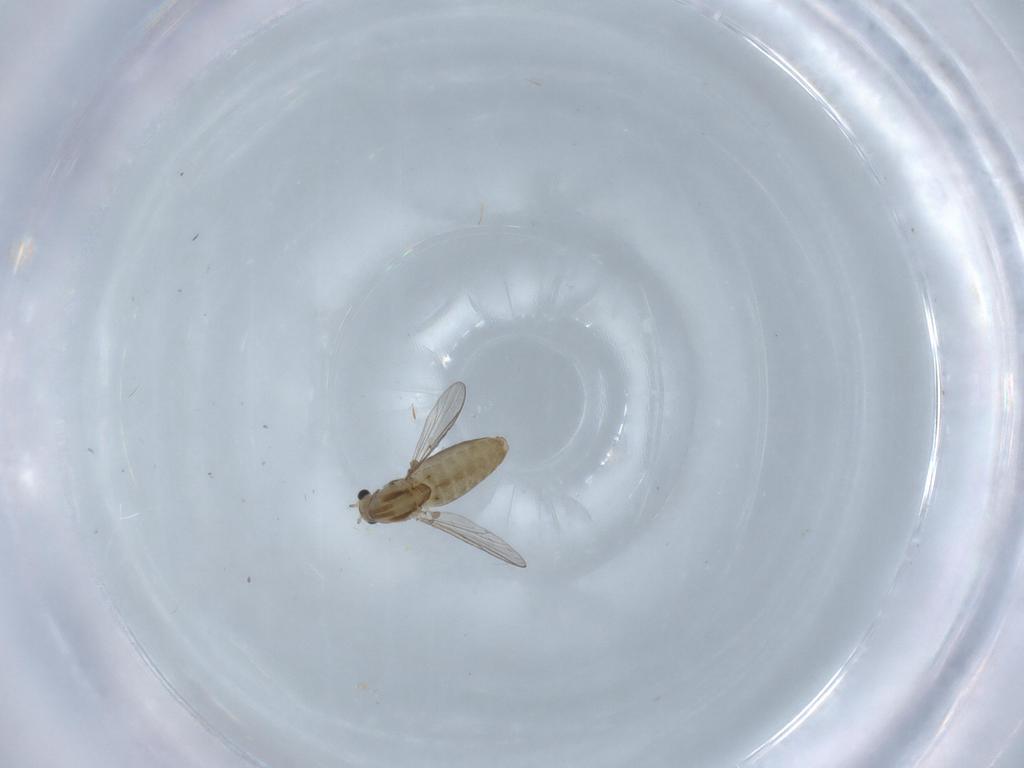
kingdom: Animalia
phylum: Arthropoda
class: Insecta
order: Diptera
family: Chironomidae
